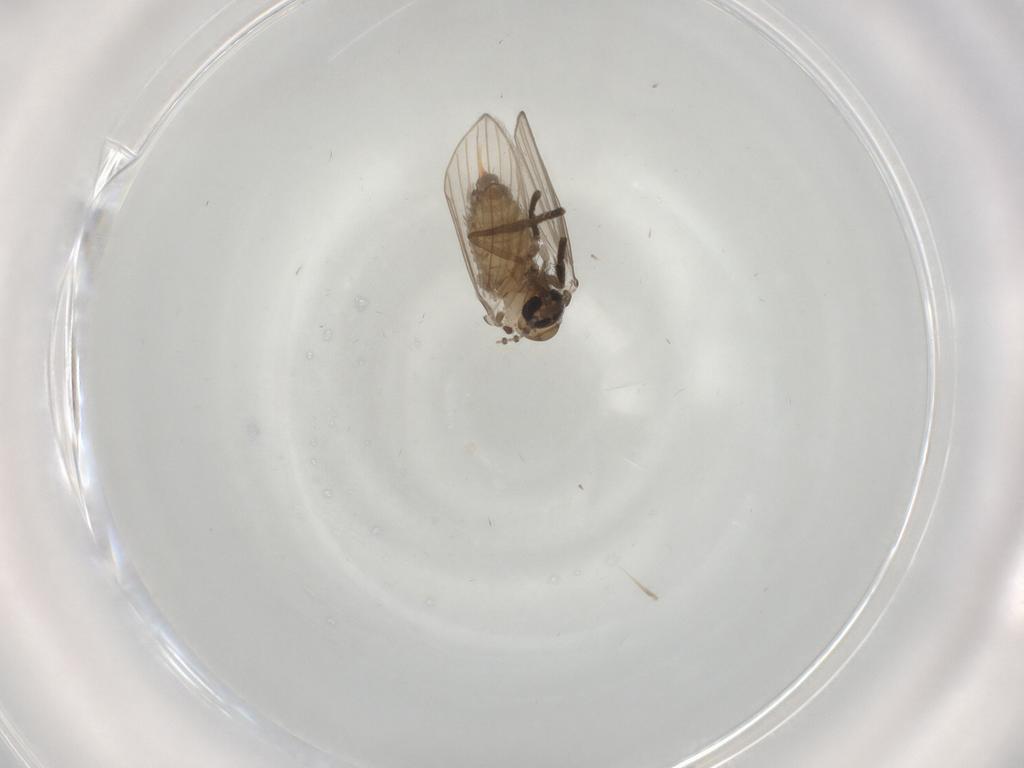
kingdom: Animalia
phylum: Arthropoda
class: Insecta
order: Diptera
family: Psychodidae
